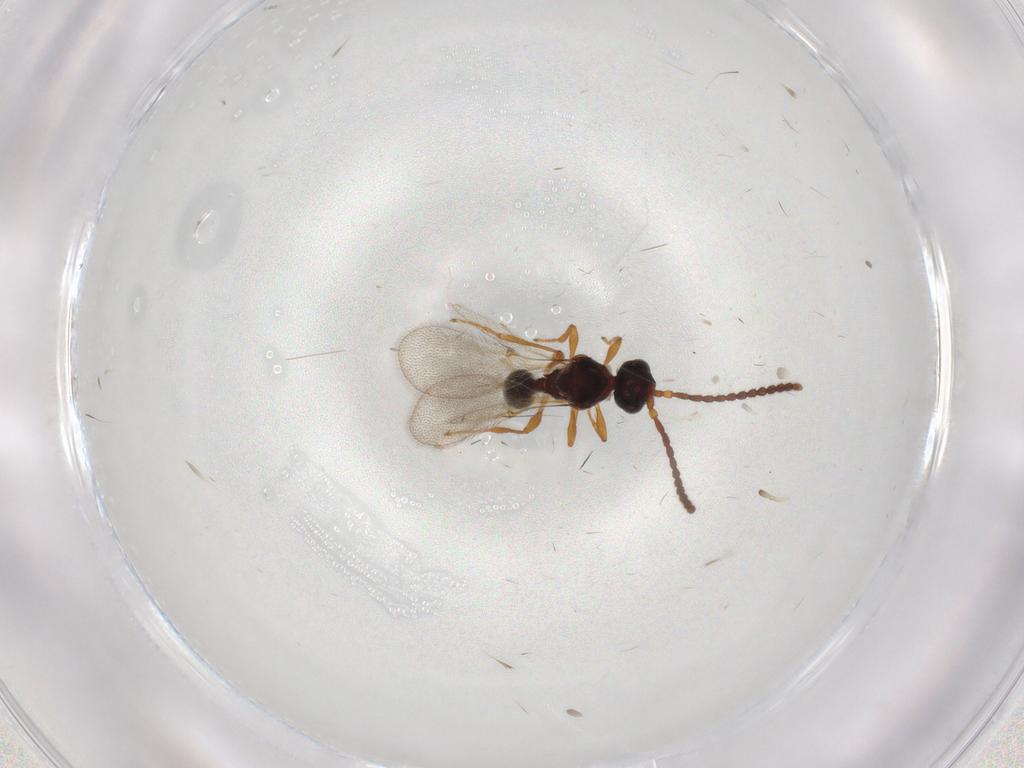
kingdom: Animalia
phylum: Arthropoda
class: Insecta
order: Hymenoptera
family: Diapriidae
